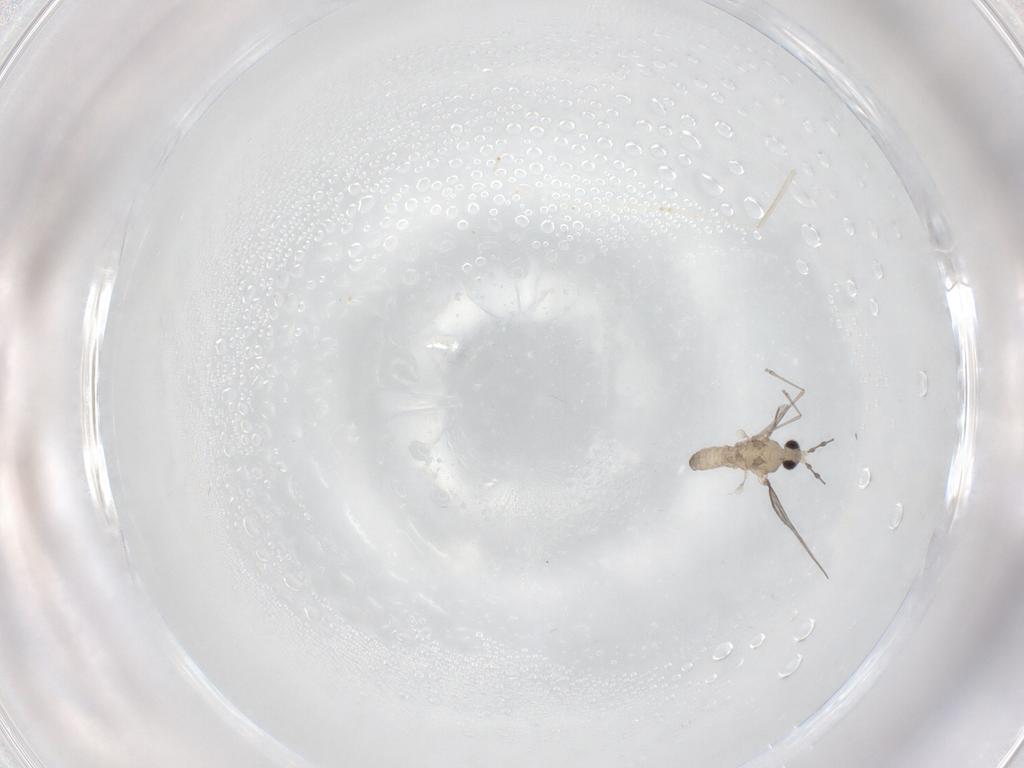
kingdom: Animalia
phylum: Arthropoda
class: Insecta
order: Diptera
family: Cecidomyiidae
